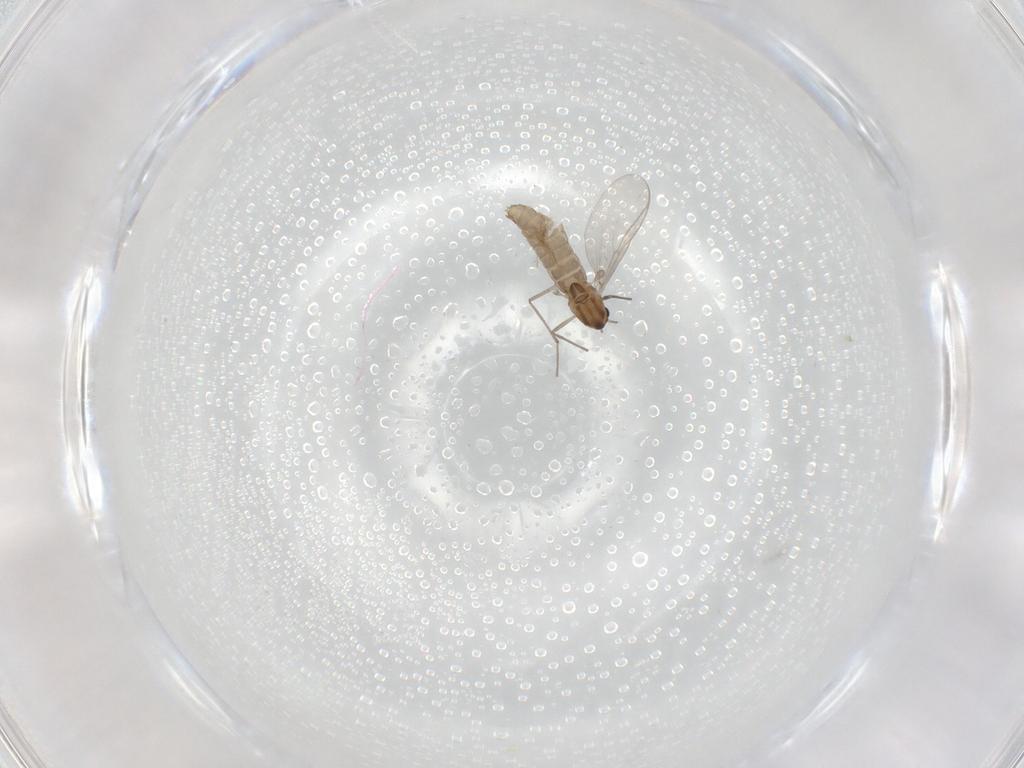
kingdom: Animalia
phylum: Arthropoda
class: Insecta
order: Diptera
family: Chironomidae
